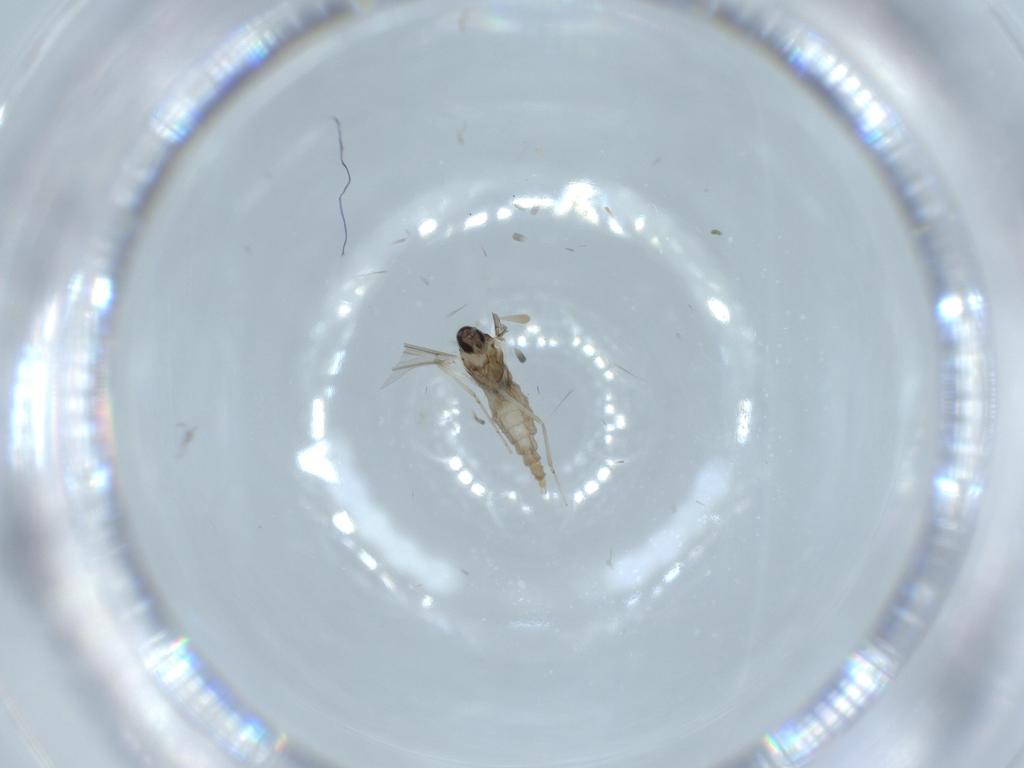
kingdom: Animalia
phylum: Arthropoda
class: Insecta
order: Diptera
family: Cecidomyiidae
